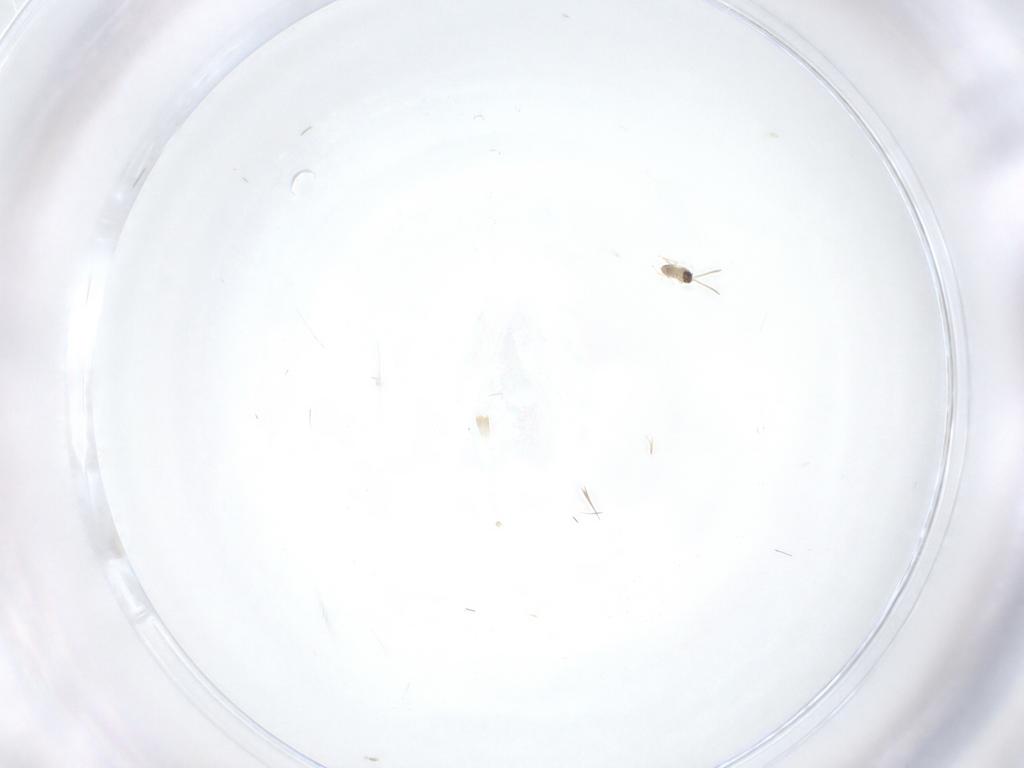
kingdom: Animalia
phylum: Arthropoda
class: Insecta
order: Hymenoptera
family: Mymaridae
